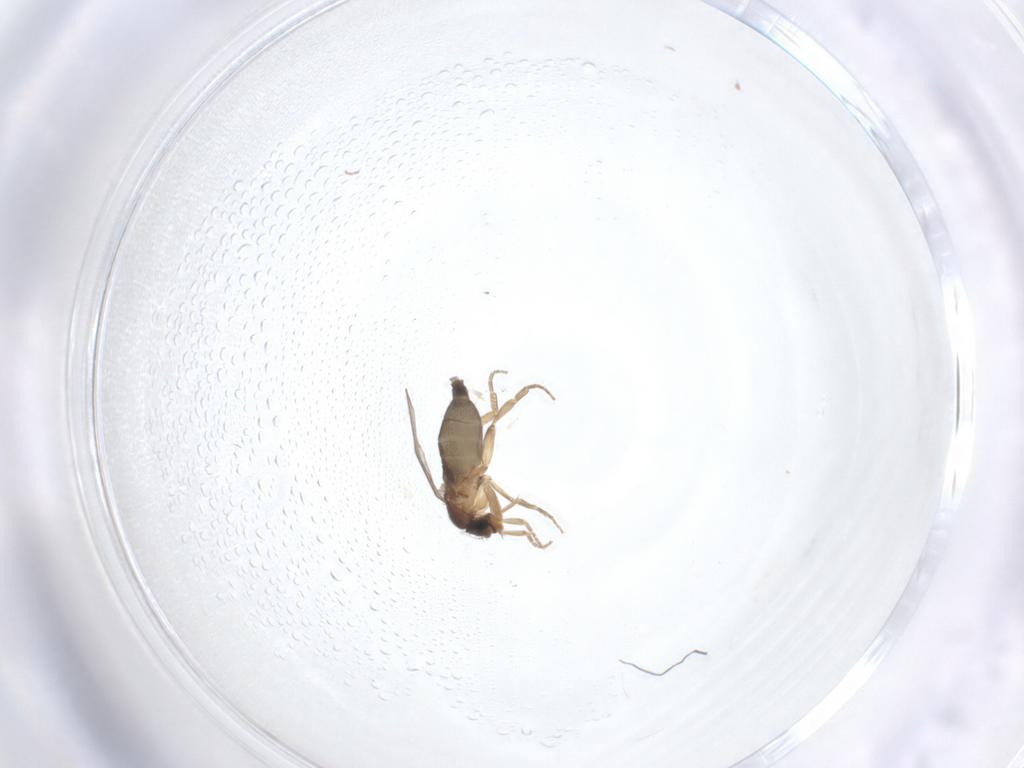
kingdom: Animalia
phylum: Arthropoda
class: Insecta
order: Diptera
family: Phoridae
